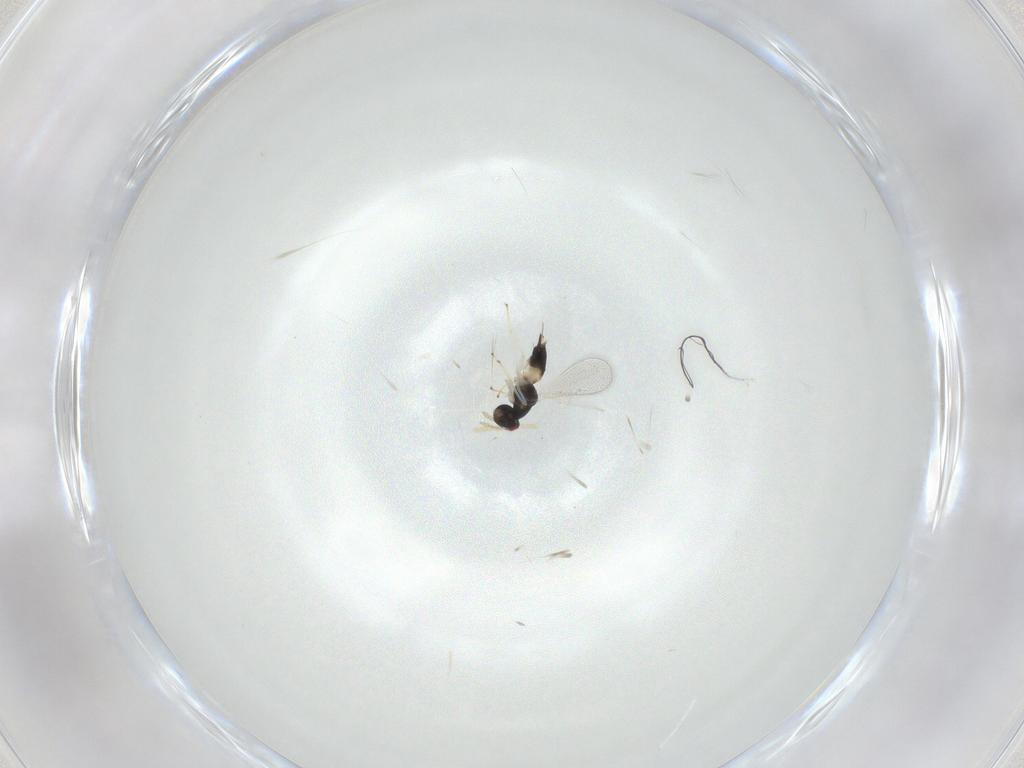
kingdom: Animalia
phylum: Arthropoda
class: Insecta
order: Hymenoptera
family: Eulophidae
